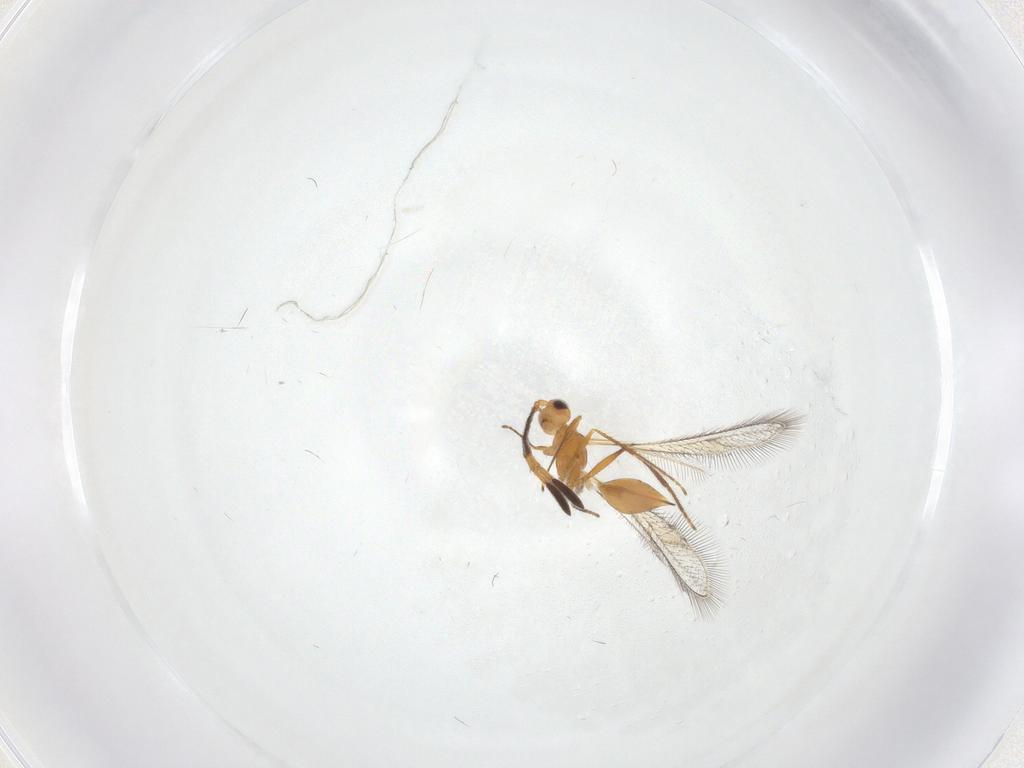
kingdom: Animalia
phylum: Arthropoda
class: Insecta
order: Hymenoptera
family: Mymaridae
